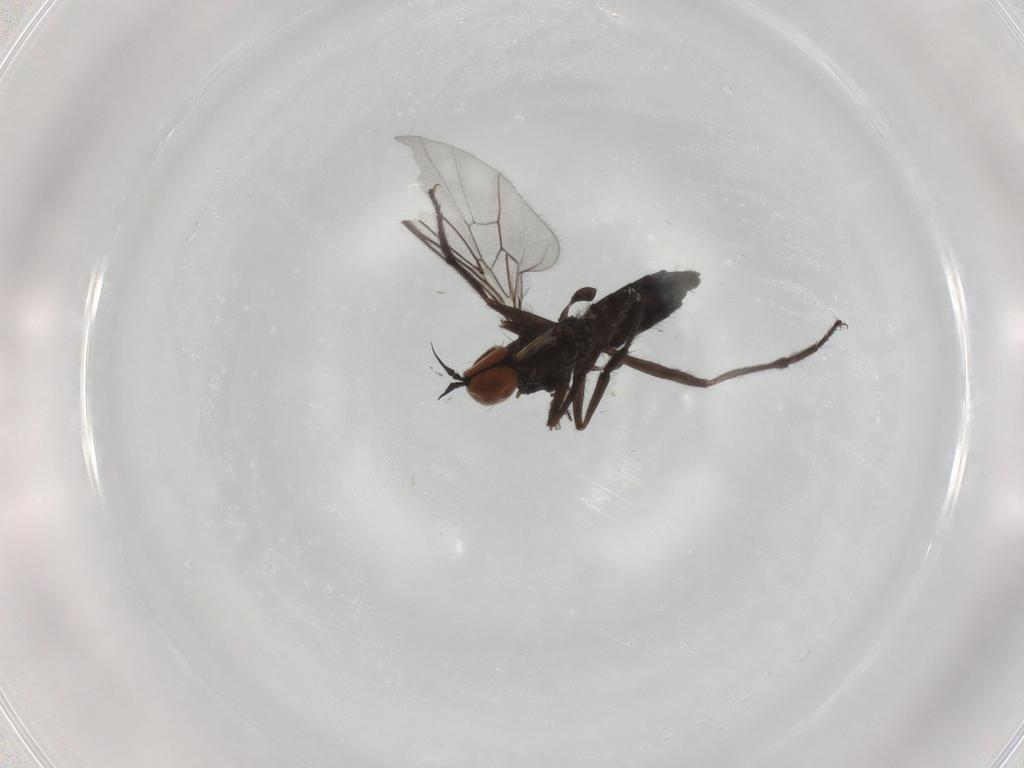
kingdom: Animalia
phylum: Arthropoda
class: Insecta
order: Diptera
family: Empididae
